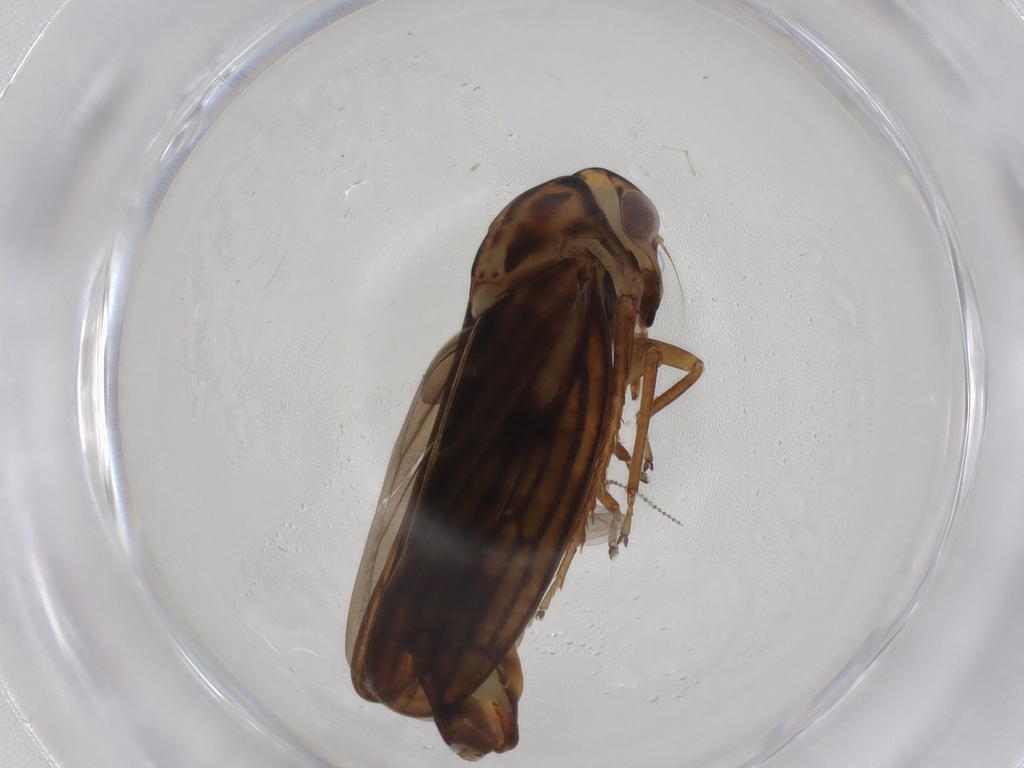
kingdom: Animalia
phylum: Arthropoda
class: Insecta
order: Hemiptera
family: Cicadellidae
